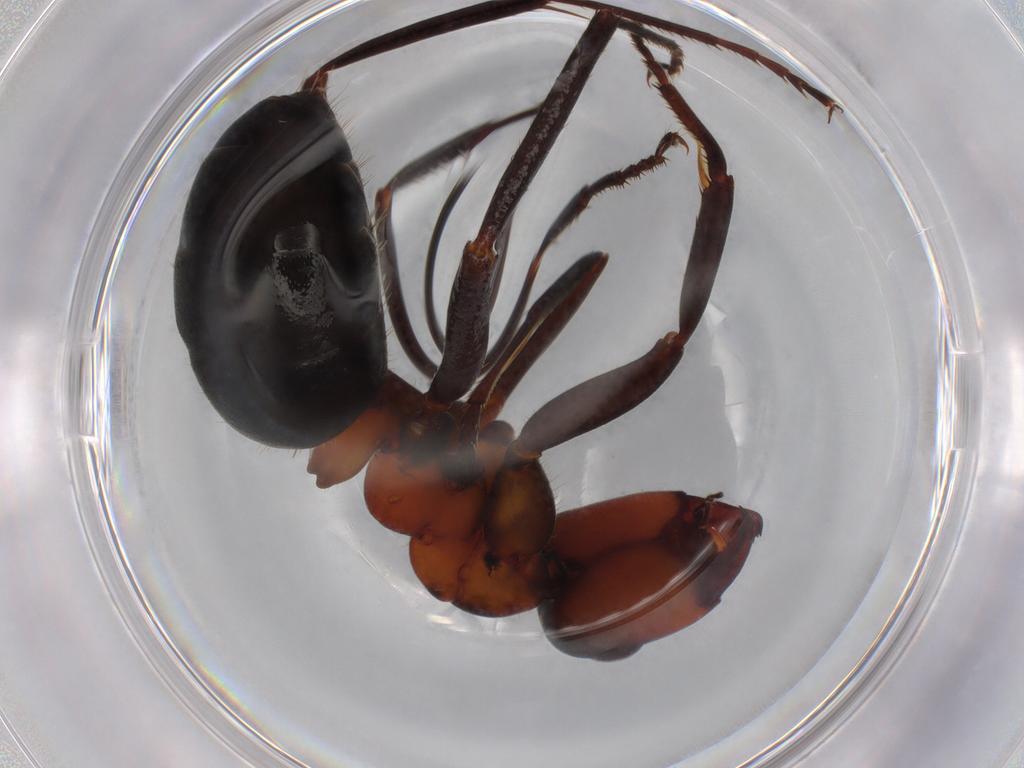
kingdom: Animalia
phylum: Arthropoda
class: Insecta
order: Hymenoptera
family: Formicidae
